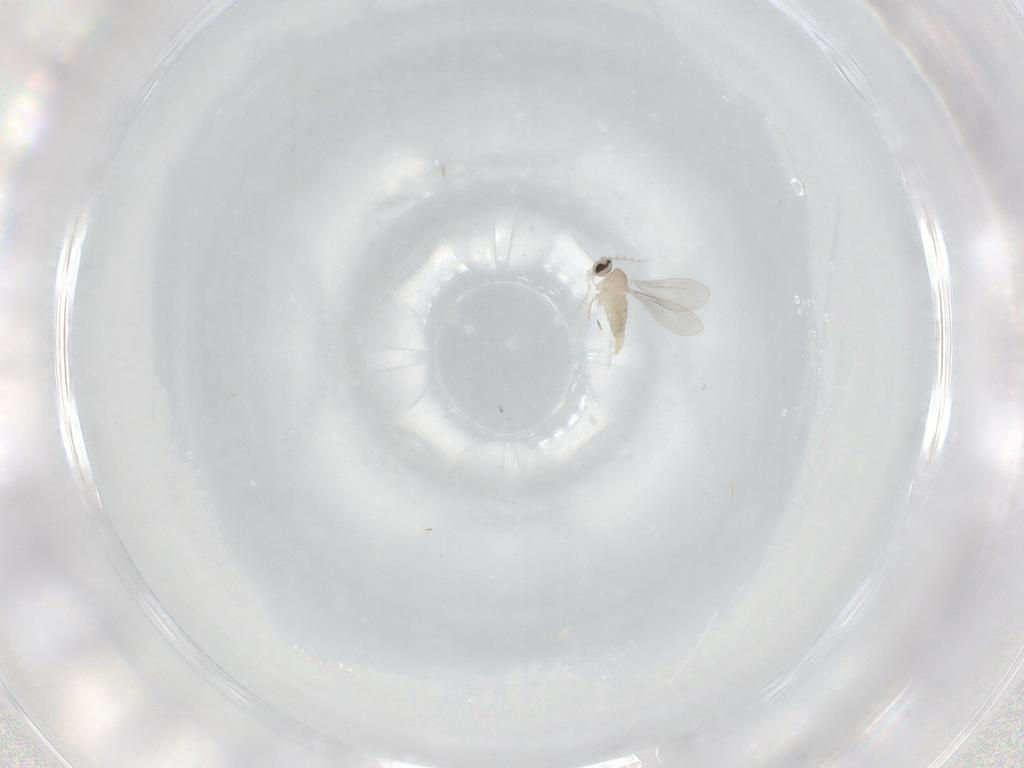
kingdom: Animalia
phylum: Arthropoda
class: Insecta
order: Diptera
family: Cecidomyiidae
